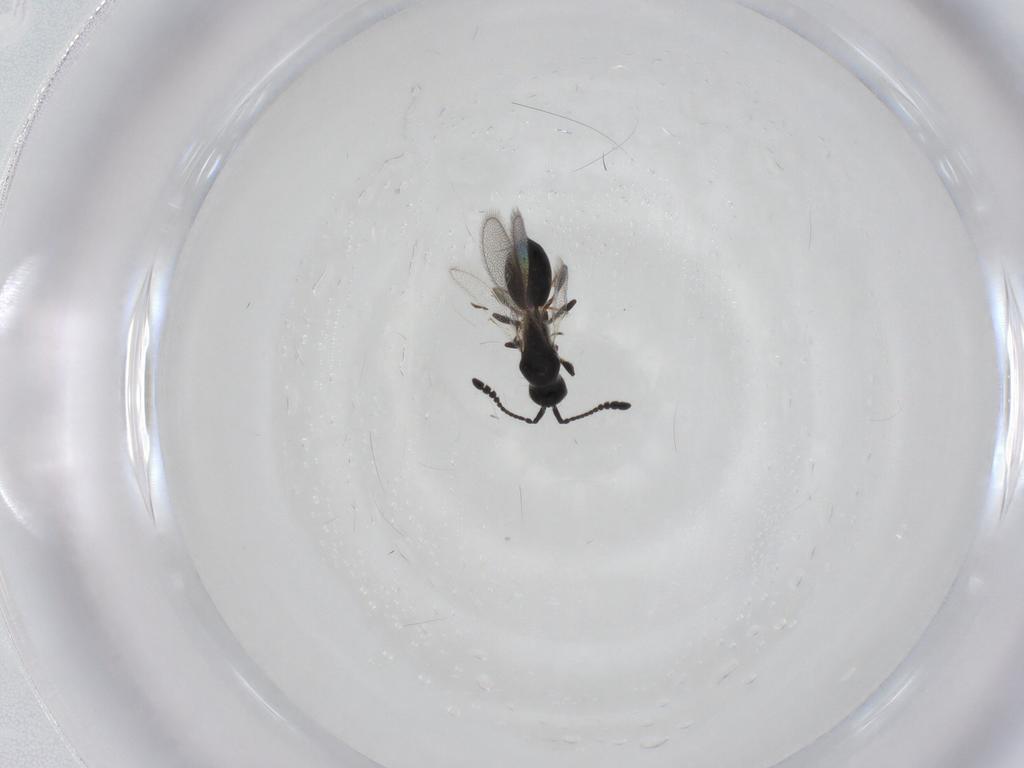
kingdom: Animalia
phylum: Arthropoda
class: Insecta
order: Hymenoptera
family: Diapriidae
